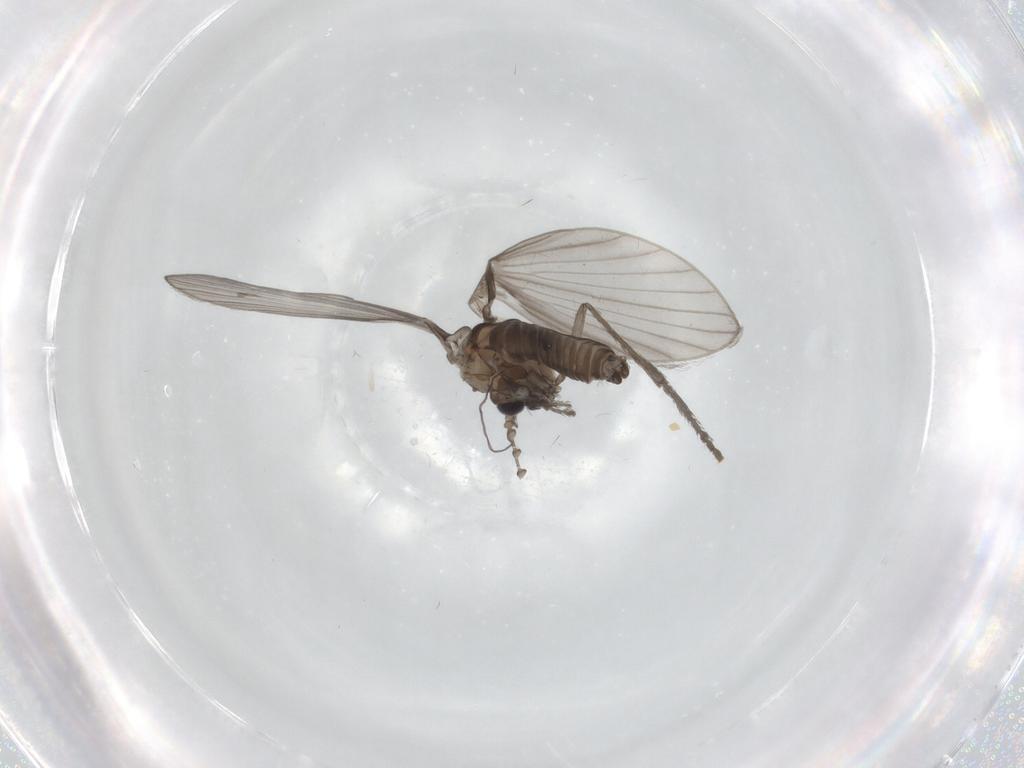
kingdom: Animalia
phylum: Arthropoda
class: Insecta
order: Diptera
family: Psychodidae
